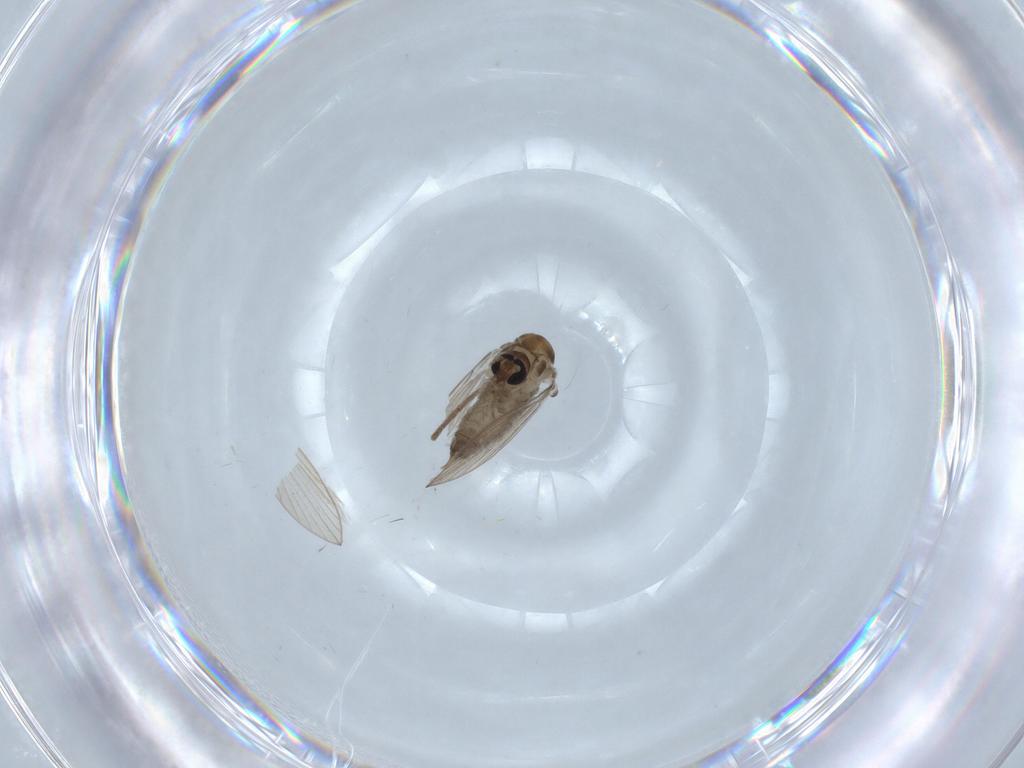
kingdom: Animalia
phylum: Arthropoda
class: Insecta
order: Diptera
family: Psychodidae
